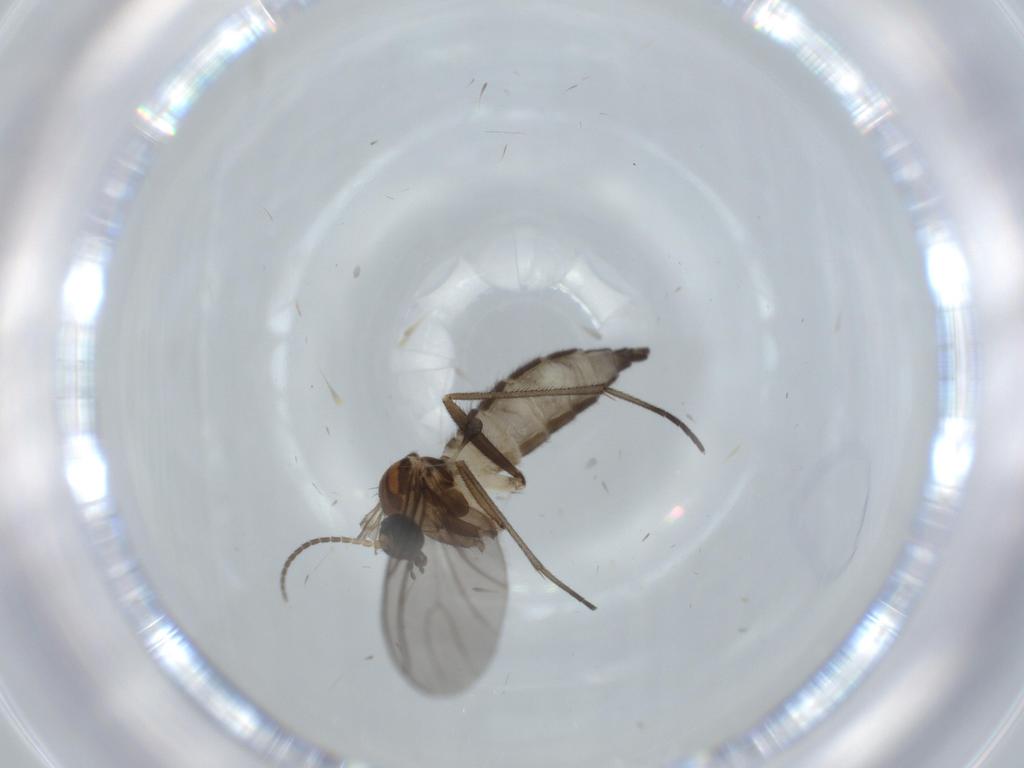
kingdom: Animalia
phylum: Arthropoda
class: Insecta
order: Diptera
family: Sciaridae
